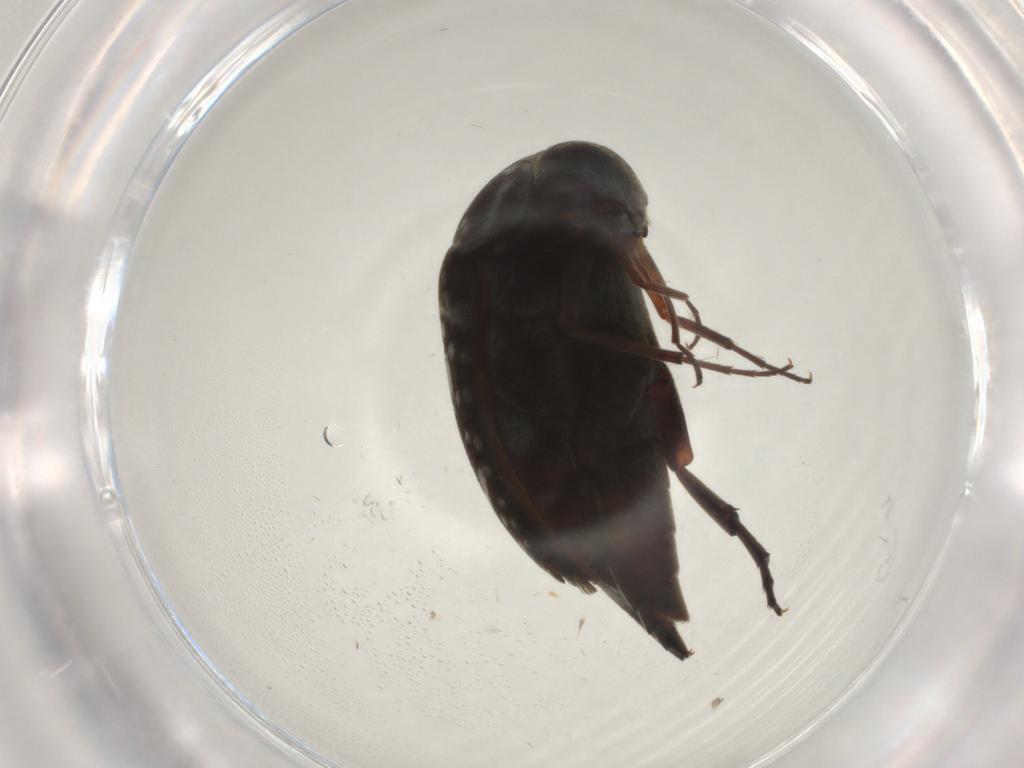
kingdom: Animalia
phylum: Arthropoda
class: Insecta
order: Coleoptera
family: Mordellidae
